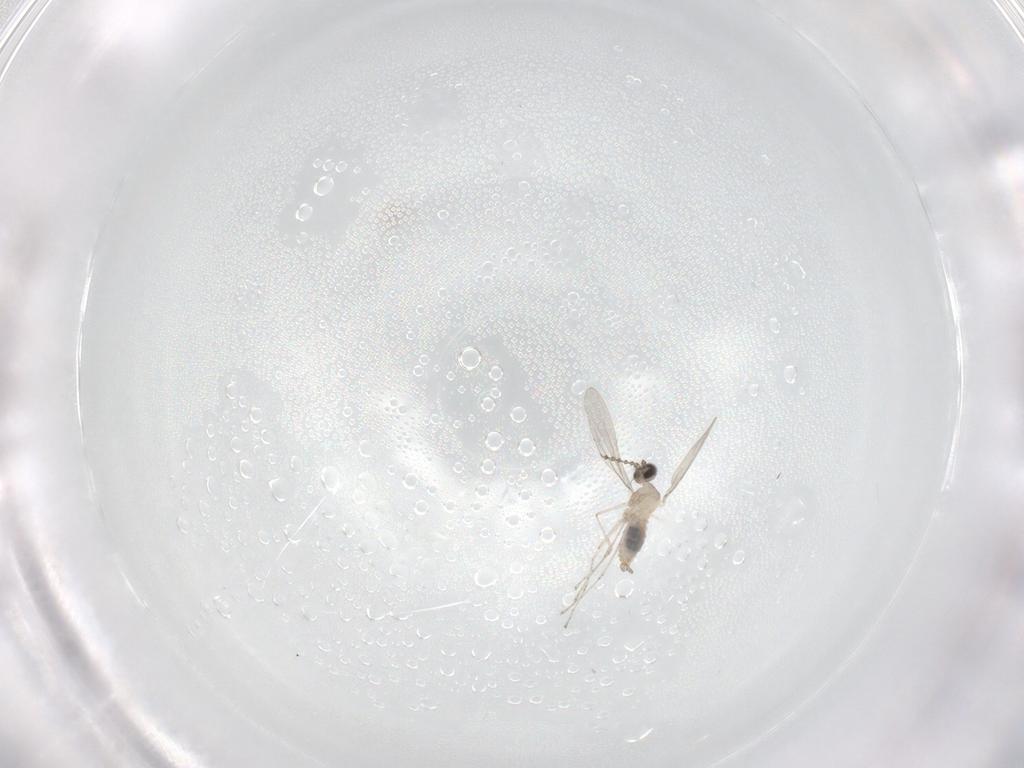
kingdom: Animalia
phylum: Arthropoda
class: Insecta
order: Diptera
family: Cecidomyiidae
